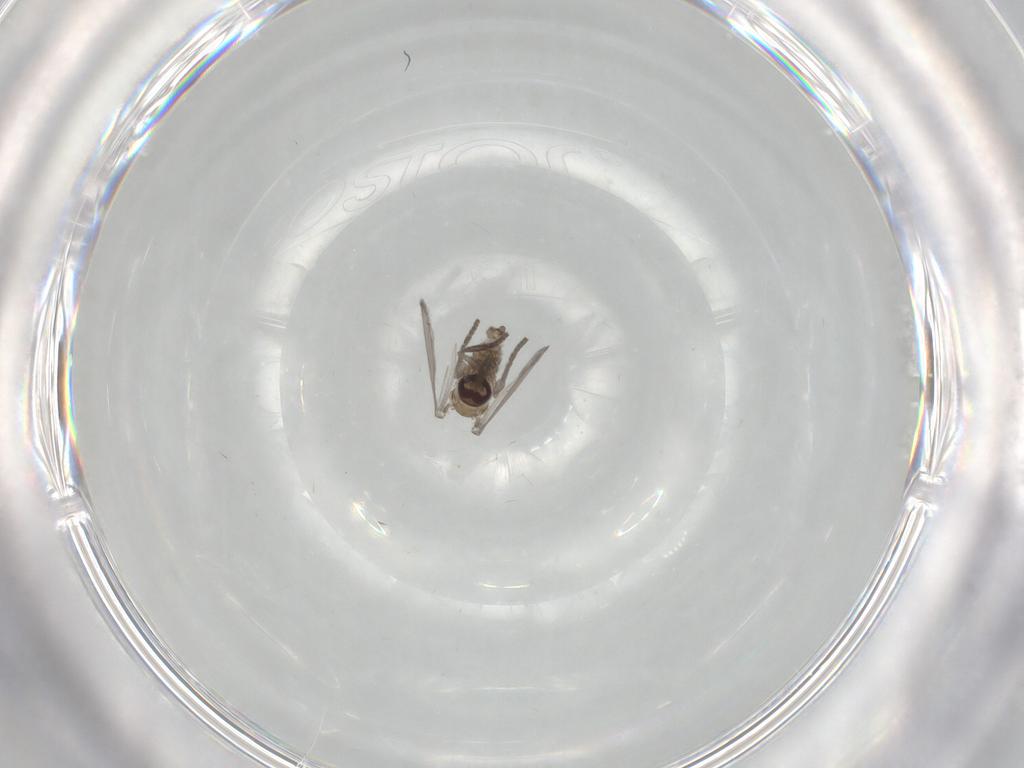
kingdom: Animalia
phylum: Arthropoda
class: Insecta
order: Diptera
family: Psychodidae
